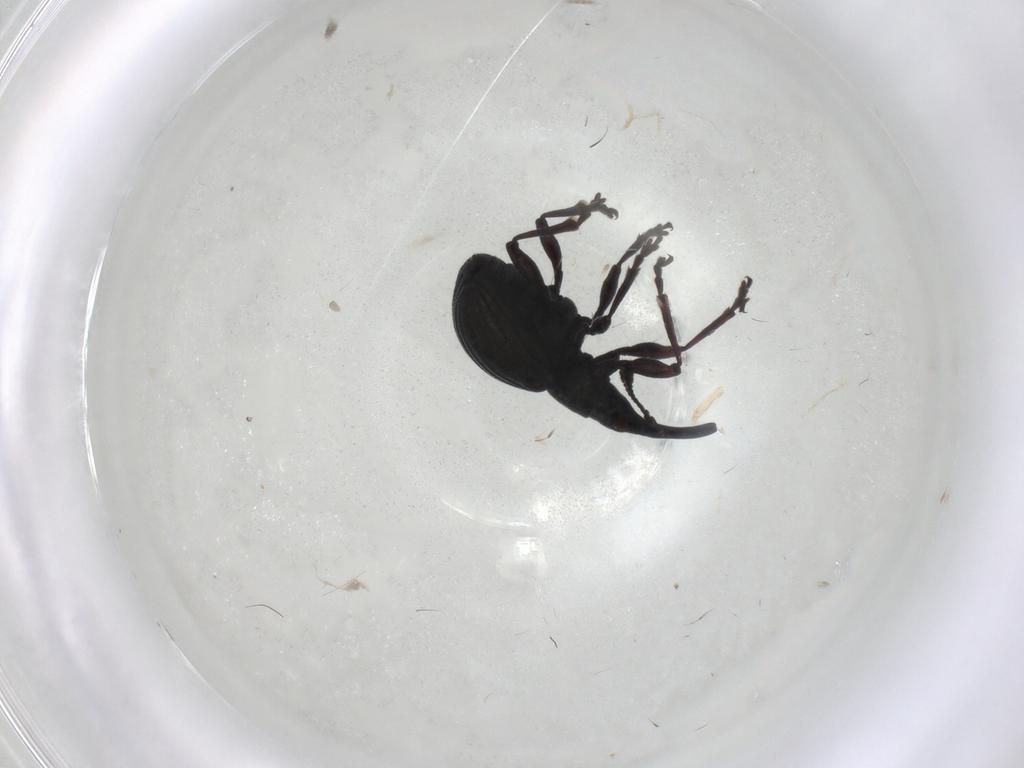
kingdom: Animalia
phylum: Arthropoda
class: Insecta
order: Coleoptera
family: Brentidae
